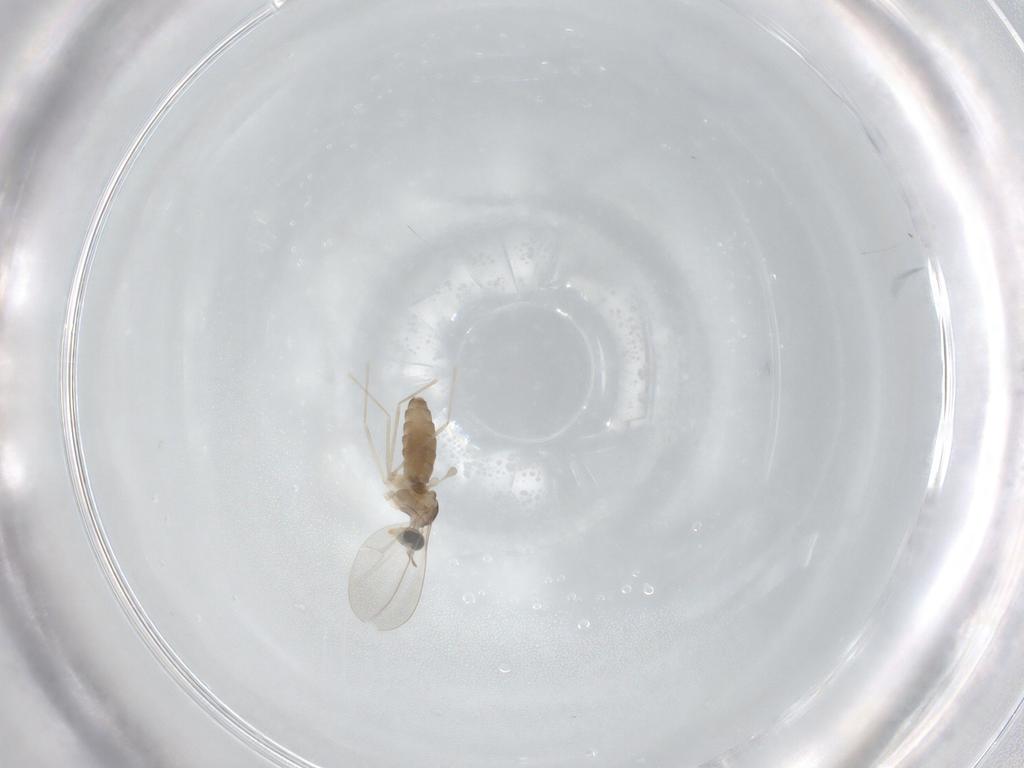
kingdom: Animalia
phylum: Arthropoda
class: Insecta
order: Diptera
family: Cecidomyiidae
